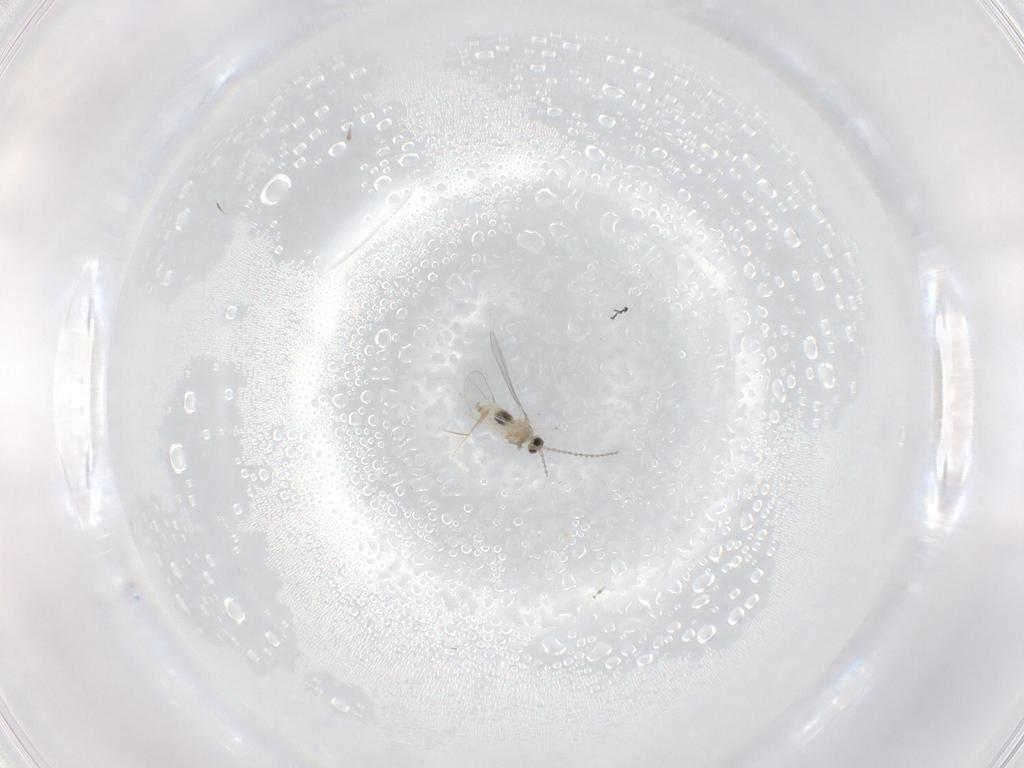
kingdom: Animalia
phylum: Arthropoda
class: Insecta
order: Diptera
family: Cecidomyiidae
